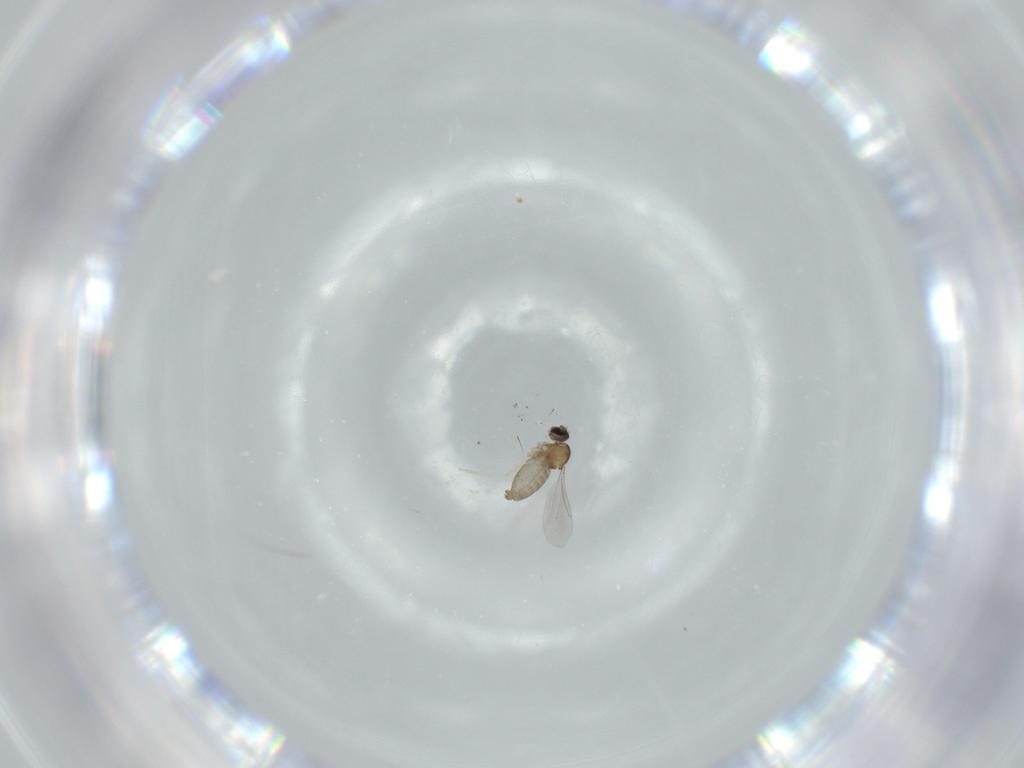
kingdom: Animalia
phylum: Arthropoda
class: Insecta
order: Diptera
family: Cecidomyiidae
